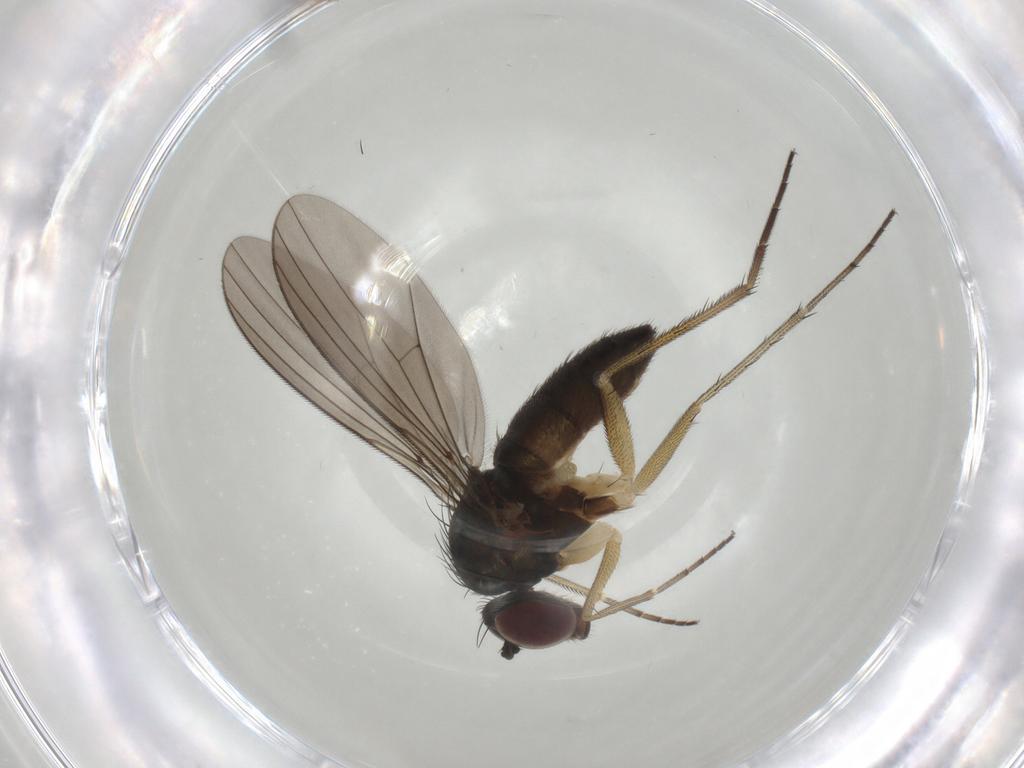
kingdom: Animalia
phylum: Arthropoda
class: Insecta
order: Diptera
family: Dolichopodidae
